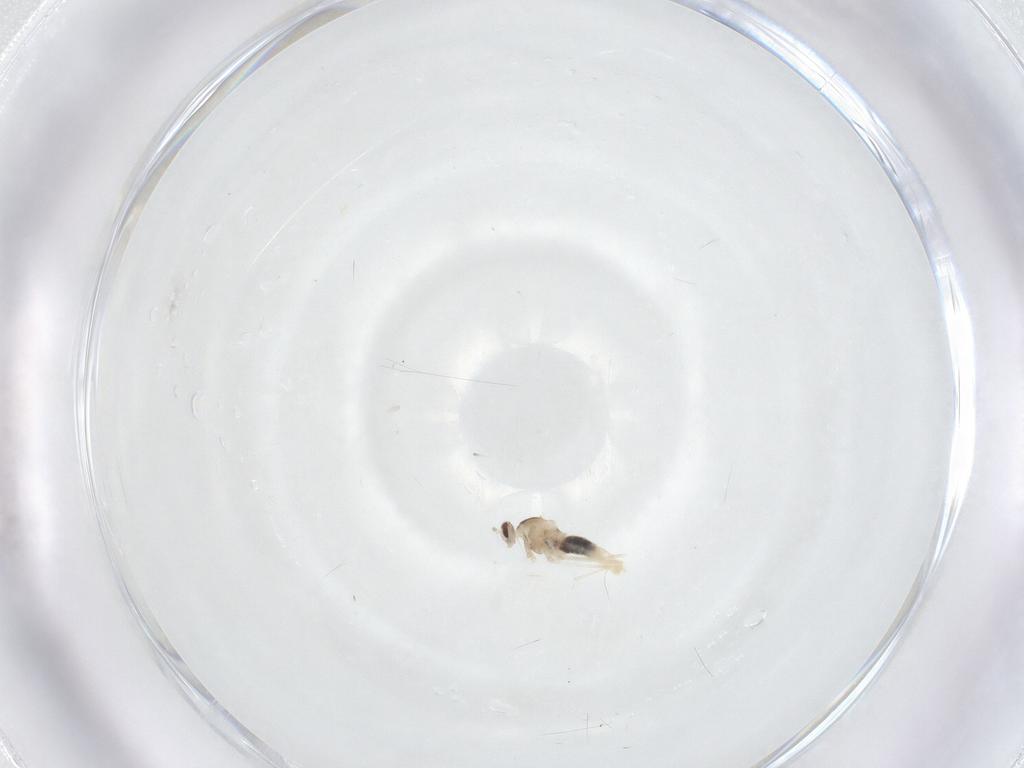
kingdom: Animalia
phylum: Arthropoda
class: Insecta
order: Diptera
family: Cecidomyiidae
